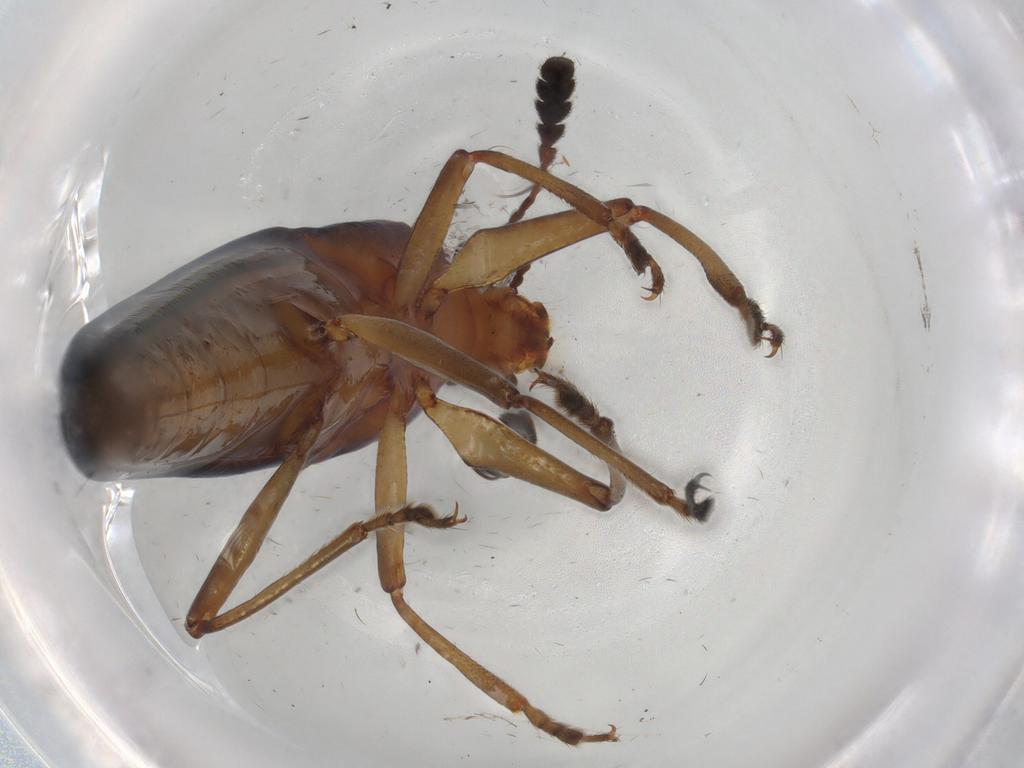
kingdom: Animalia
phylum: Arthropoda
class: Insecta
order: Coleoptera
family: Erotylidae
